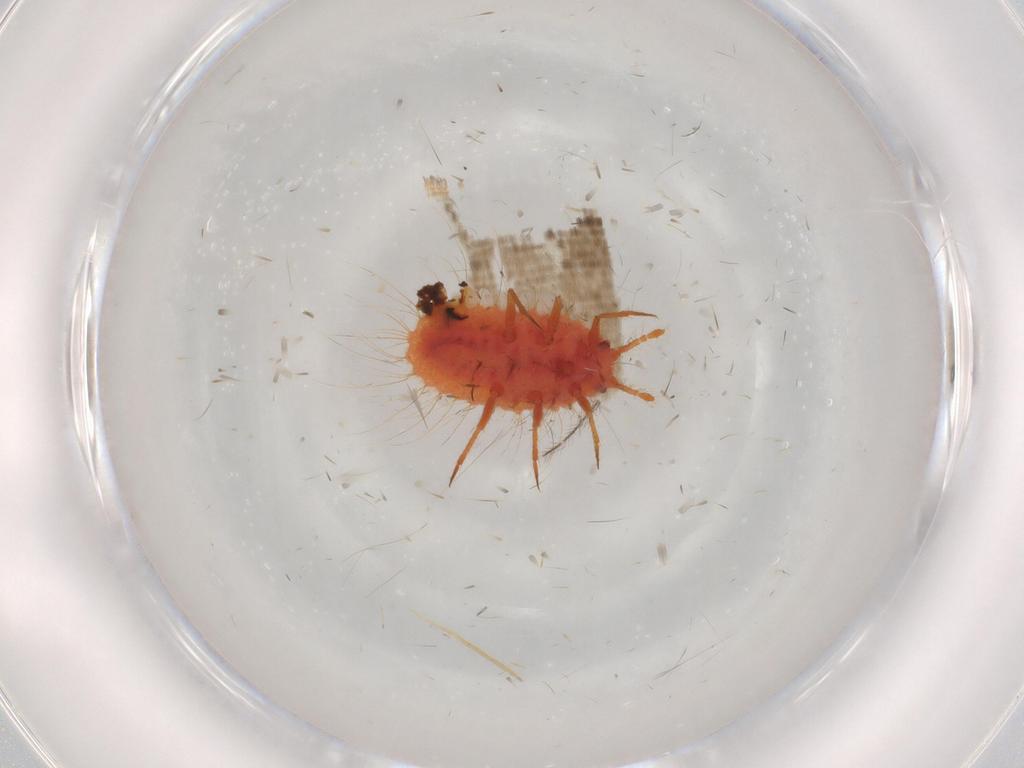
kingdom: Animalia
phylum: Arthropoda
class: Insecta
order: Hemiptera
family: Cicadellidae
